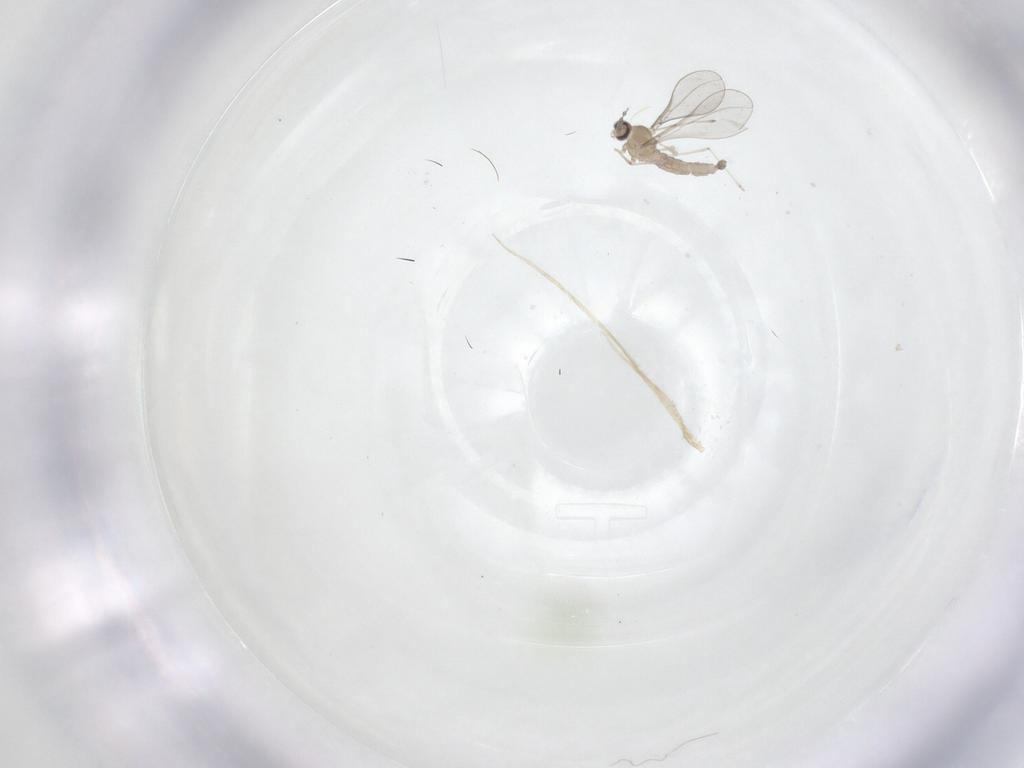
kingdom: Animalia
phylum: Arthropoda
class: Insecta
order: Diptera
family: Cecidomyiidae
